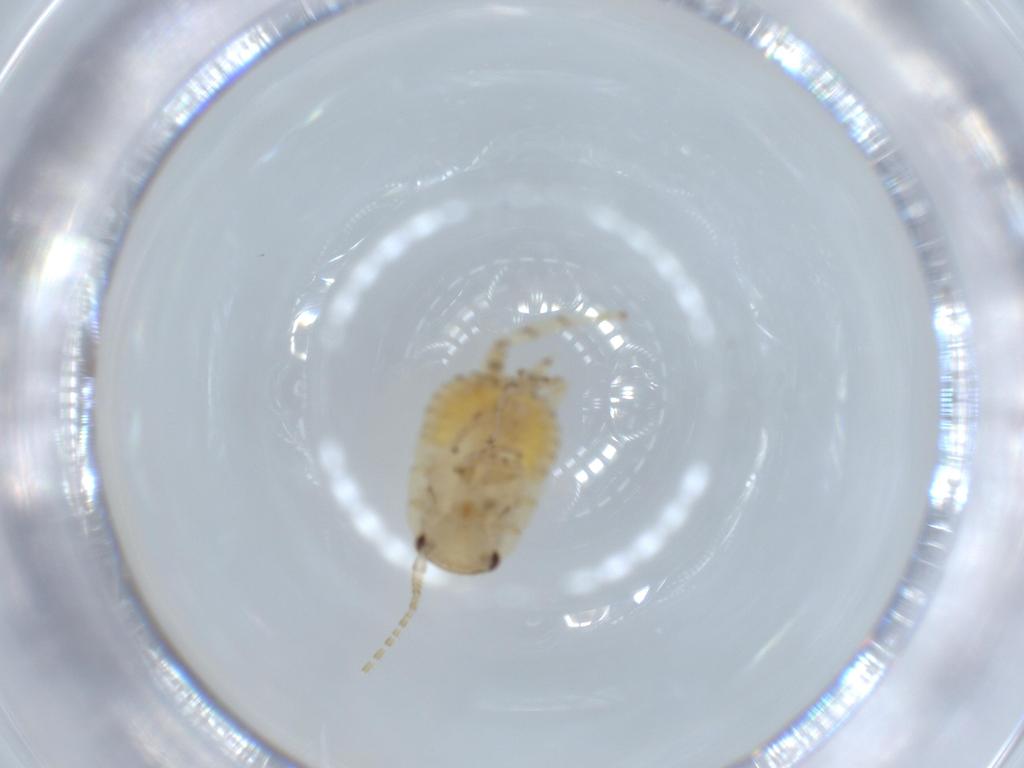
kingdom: Animalia
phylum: Arthropoda
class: Insecta
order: Blattodea
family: Ectobiidae
